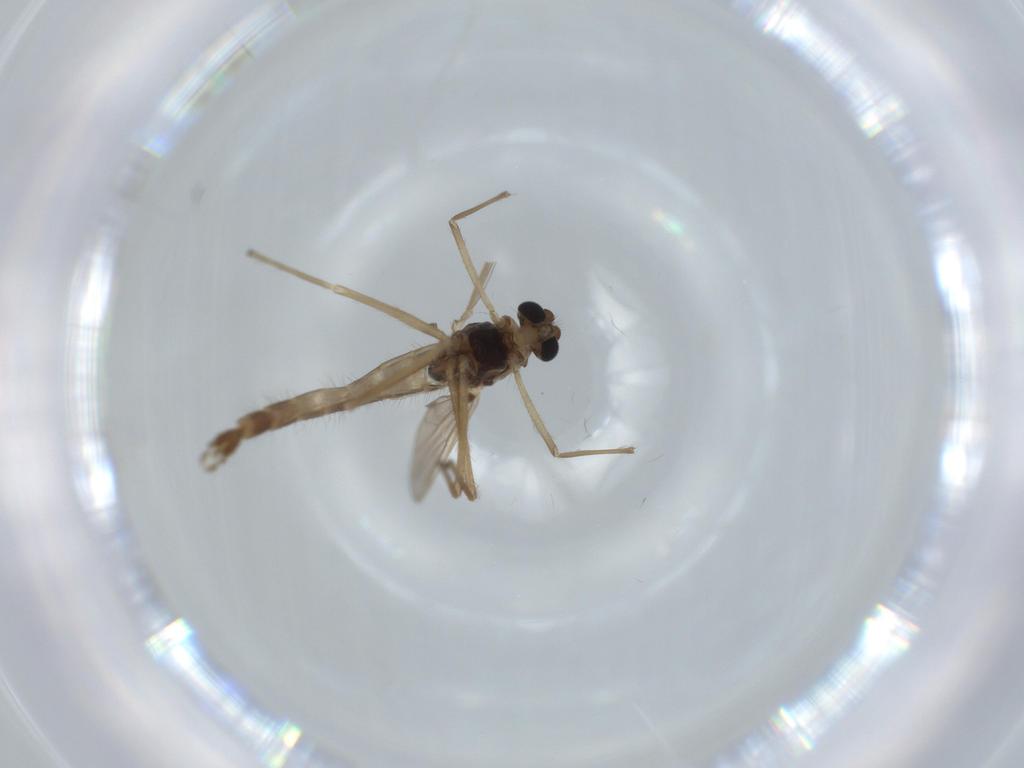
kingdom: Animalia
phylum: Arthropoda
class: Insecta
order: Diptera
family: Chironomidae
